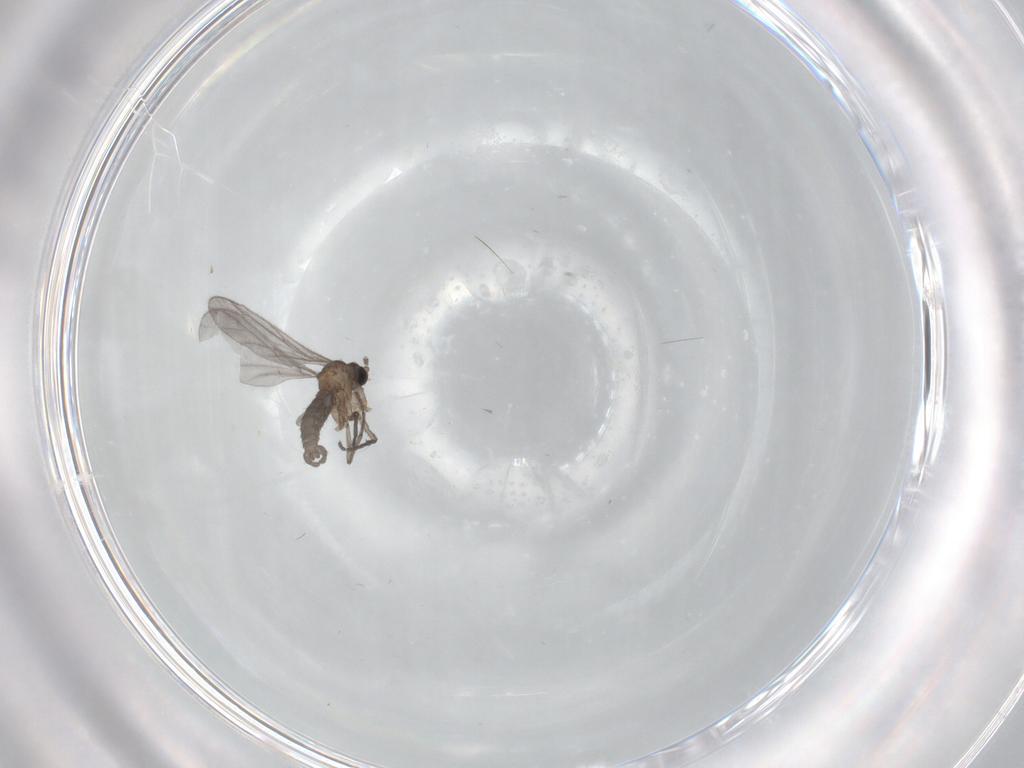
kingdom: Animalia
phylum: Arthropoda
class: Insecta
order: Diptera
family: Sciaridae
